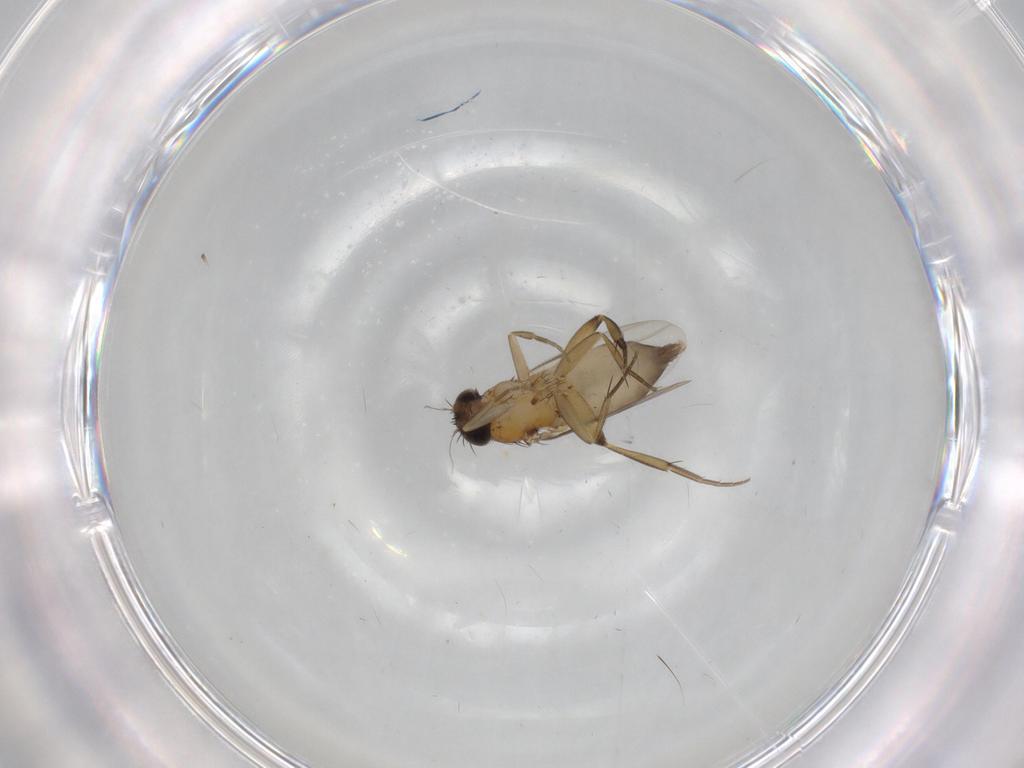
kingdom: Animalia
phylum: Arthropoda
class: Insecta
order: Diptera
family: Phoridae
